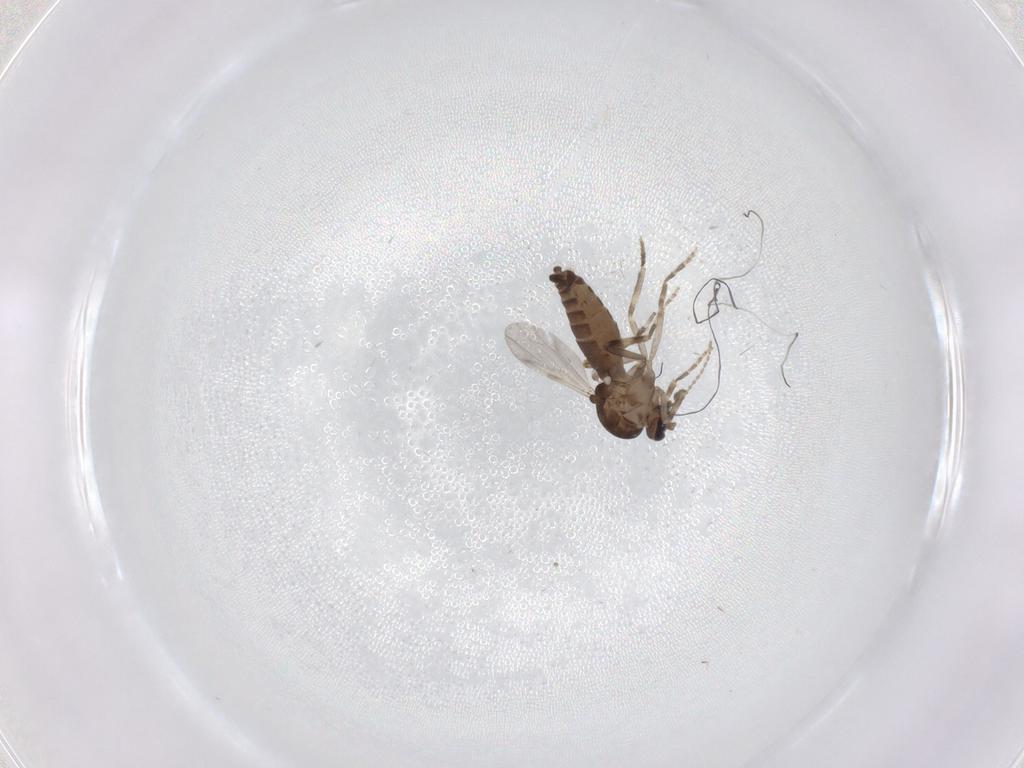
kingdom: Animalia
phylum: Arthropoda
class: Insecta
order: Diptera
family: Ceratopogonidae
